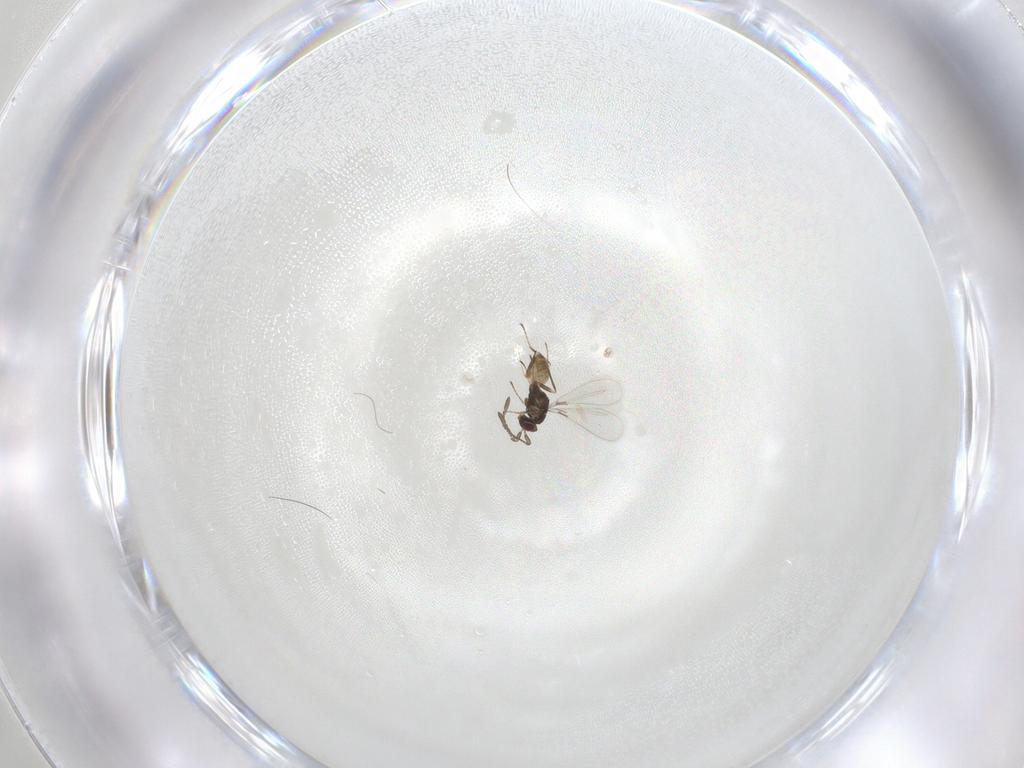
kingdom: Animalia
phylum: Arthropoda
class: Insecta
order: Hymenoptera
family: Mymaridae
